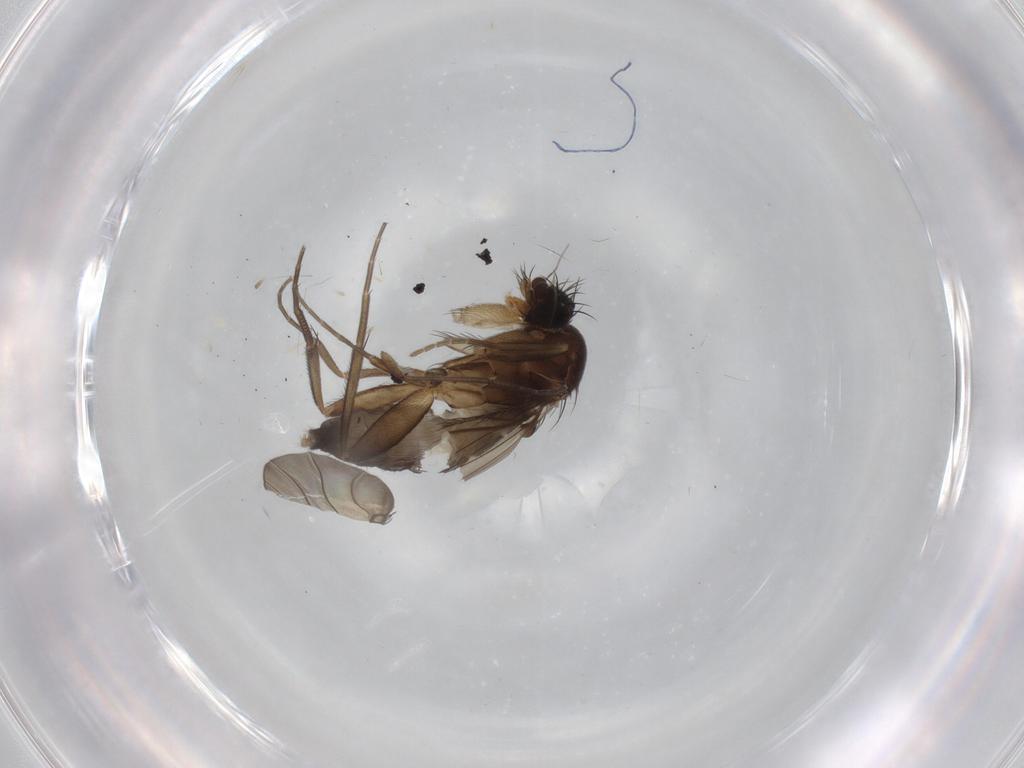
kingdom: Animalia
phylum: Arthropoda
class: Insecta
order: Diptera
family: Phoridae
